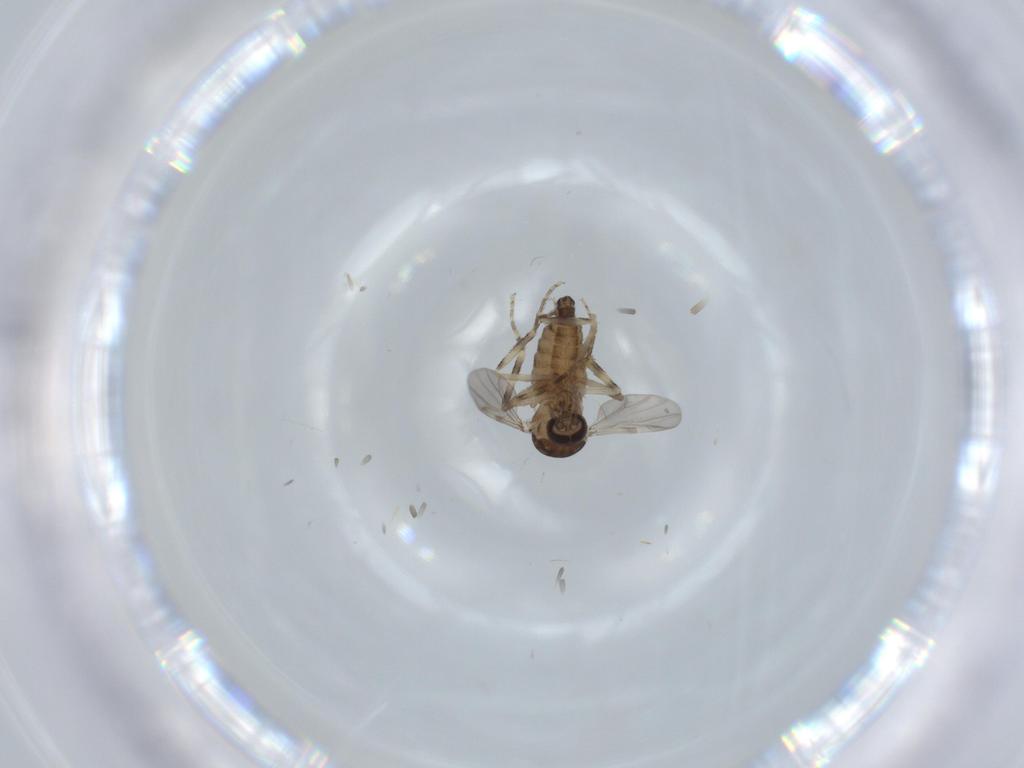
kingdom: Animalia
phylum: Arthropoda
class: Insecta
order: Diptera
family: Ceratopogonidae
